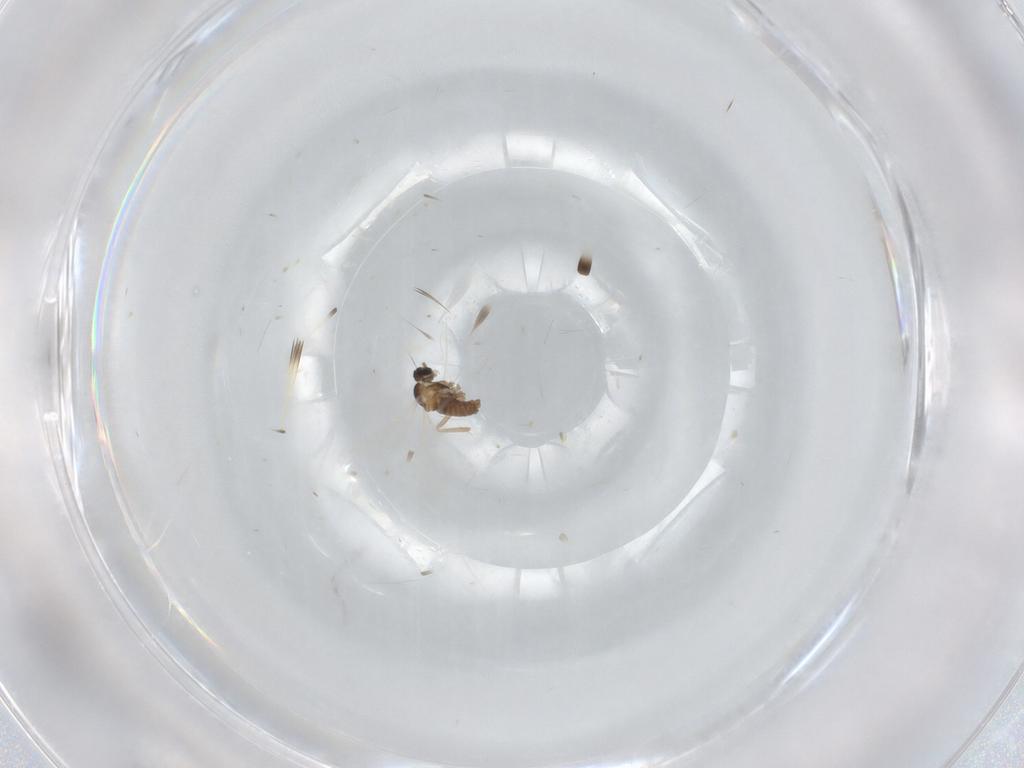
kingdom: Animalia
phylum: Arthropoda
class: Insecta
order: Diptera
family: Cecidomyiidae
